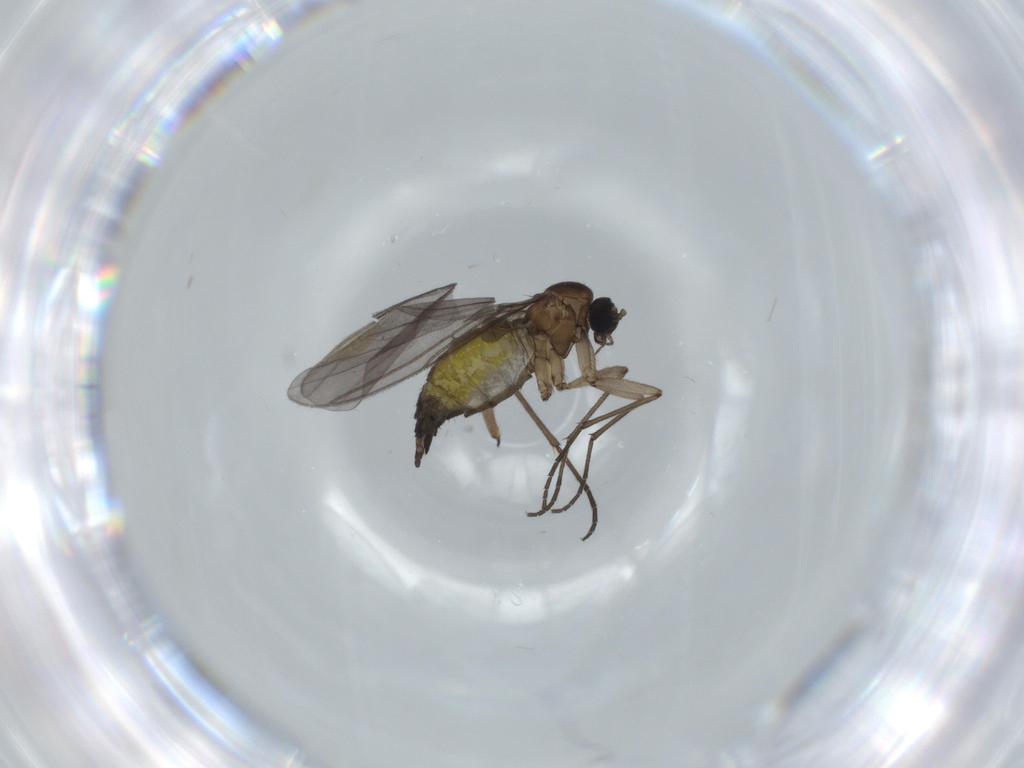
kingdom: Animalia
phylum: Arthropoda
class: Insecta
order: Diptera
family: Sciaridae
